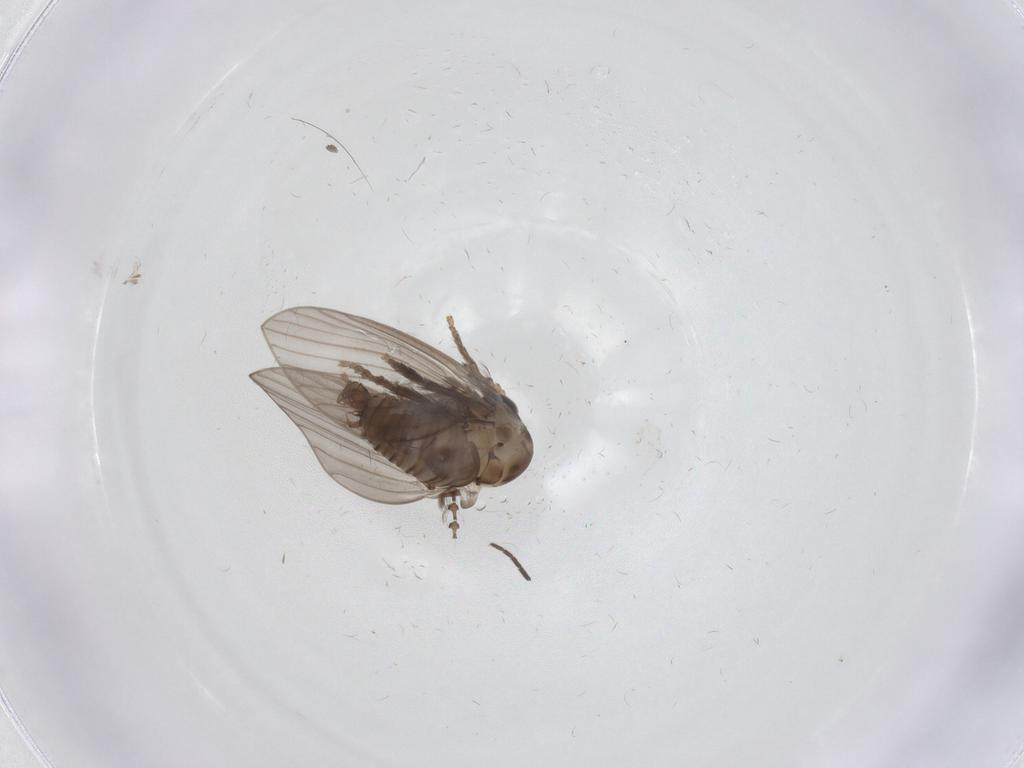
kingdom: Animalia
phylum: Arthropoda
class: Insecta
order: Diptera
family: Psychodidae
